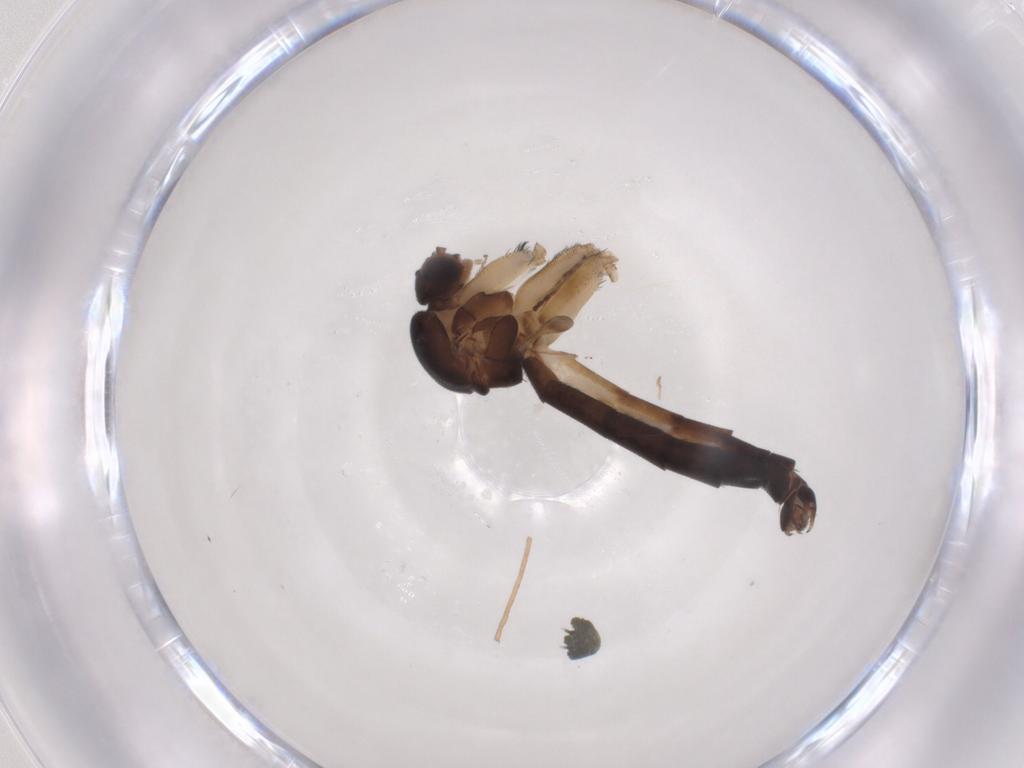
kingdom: Animalia
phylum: Arthropoda
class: Insecta
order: Diptera
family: Keroplatidae
